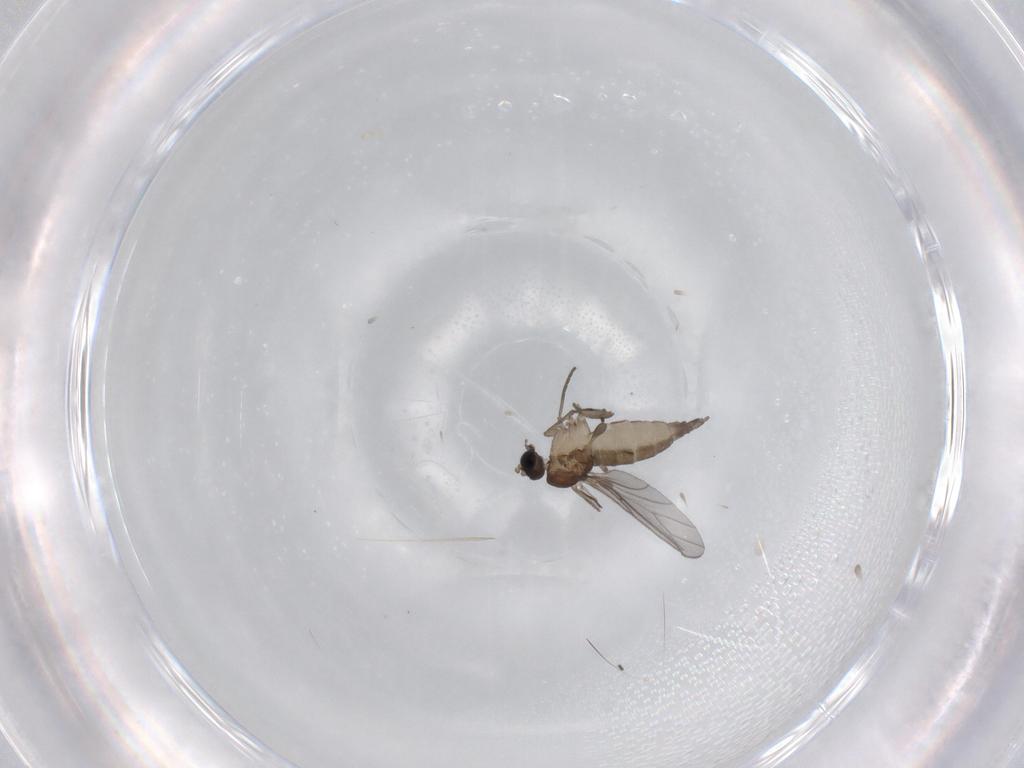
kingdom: Animalia
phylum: Arthropoda
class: Insecta
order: Diptera
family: Sciaridae
